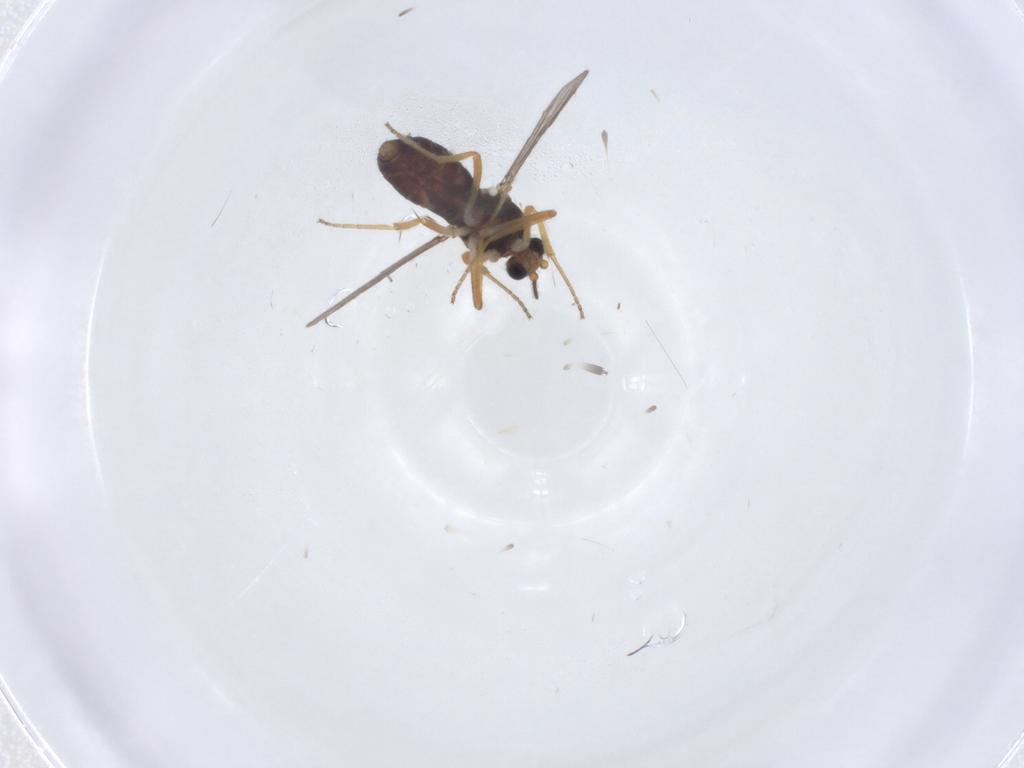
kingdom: Animalia
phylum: Arthropoda
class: Insecta
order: Diptera
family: Ceratopogonidae
